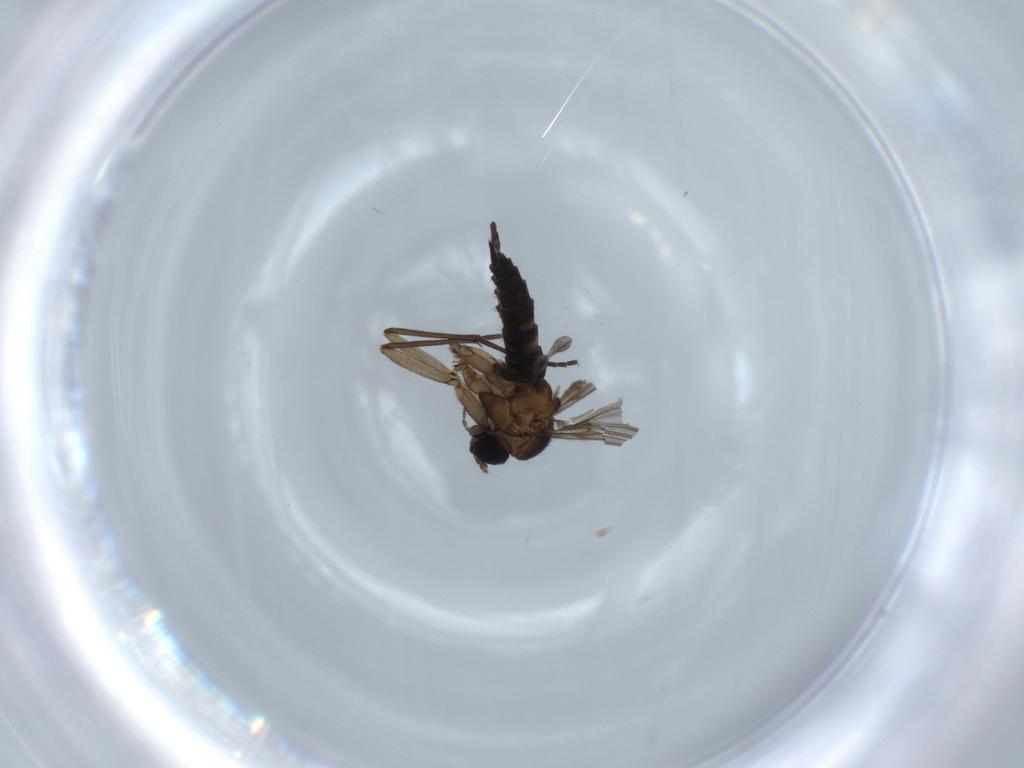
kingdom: Animalia
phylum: Arthropoda
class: Insecta
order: Diptera
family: Sciaridae
